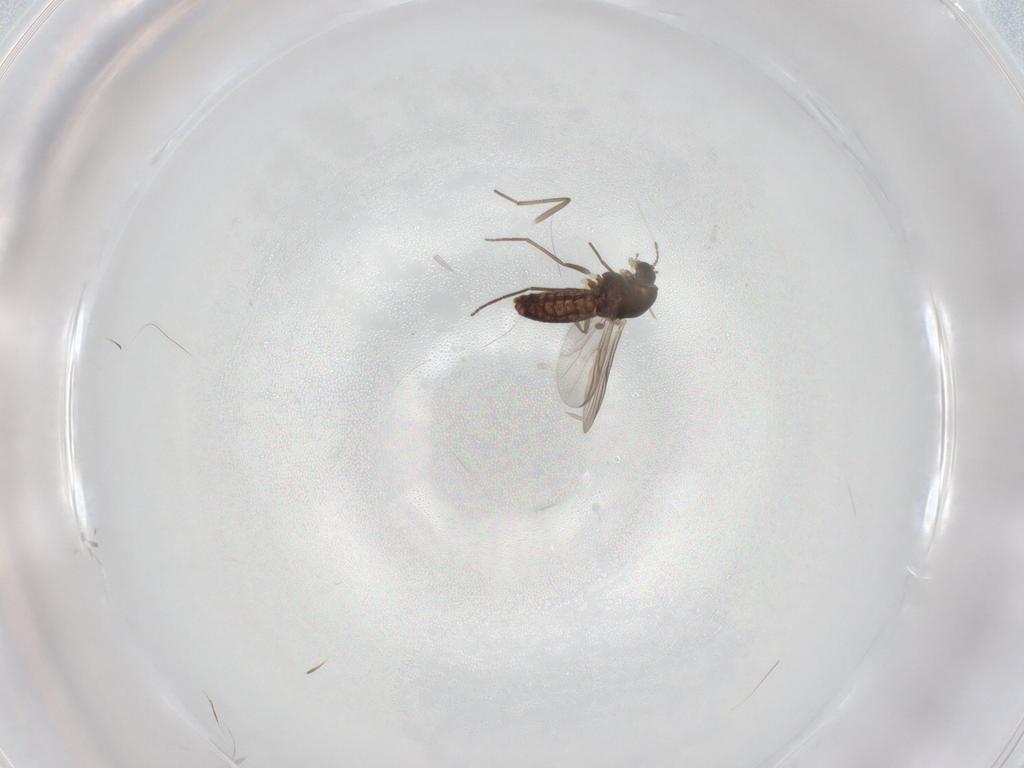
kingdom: Animalia
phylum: Arthropoda
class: Insecta
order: Diptera
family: Chironomidae
